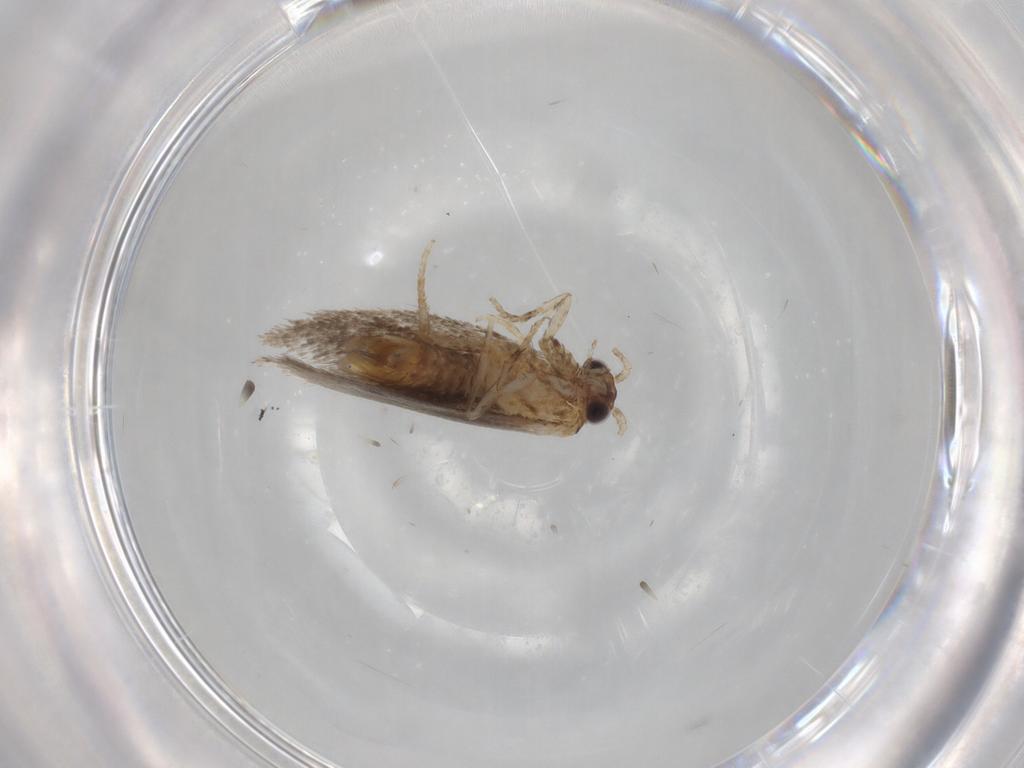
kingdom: Animalia
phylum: Arthropoda
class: Insecta
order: Lepidoptera
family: Tineidae
